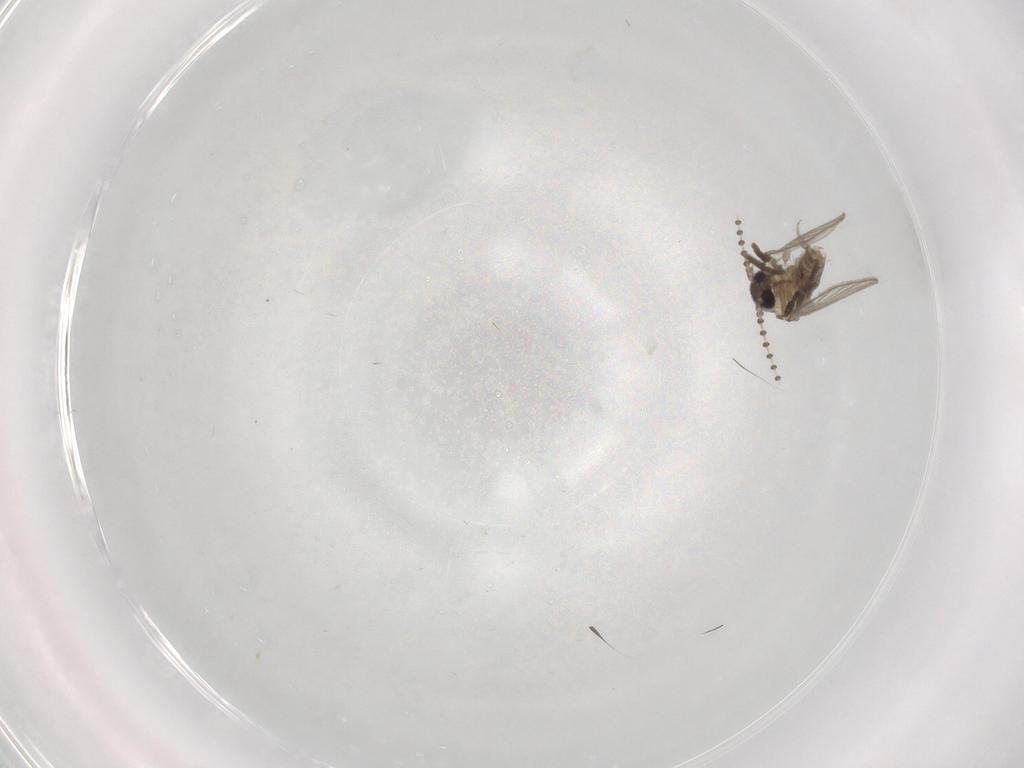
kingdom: Animalia
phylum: Arthropoda
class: Insecta
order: Diptera
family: Psychodidae
